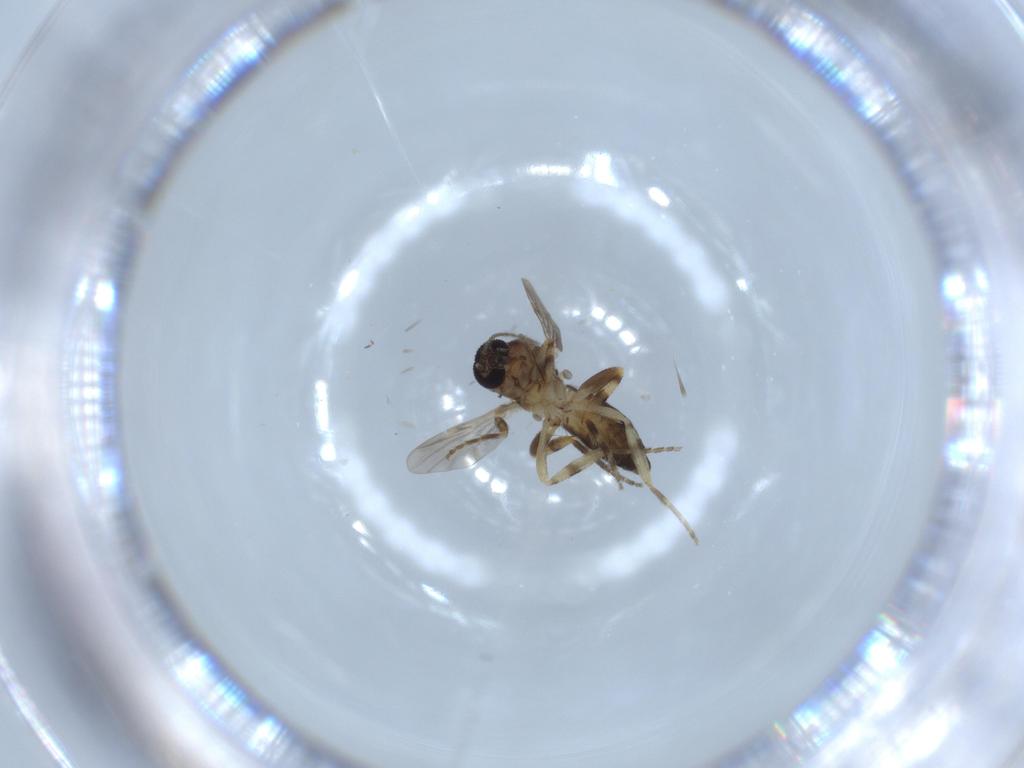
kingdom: Animalia
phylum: Arthropoda
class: Insecta
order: Diptera
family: Ceratopogonidae
